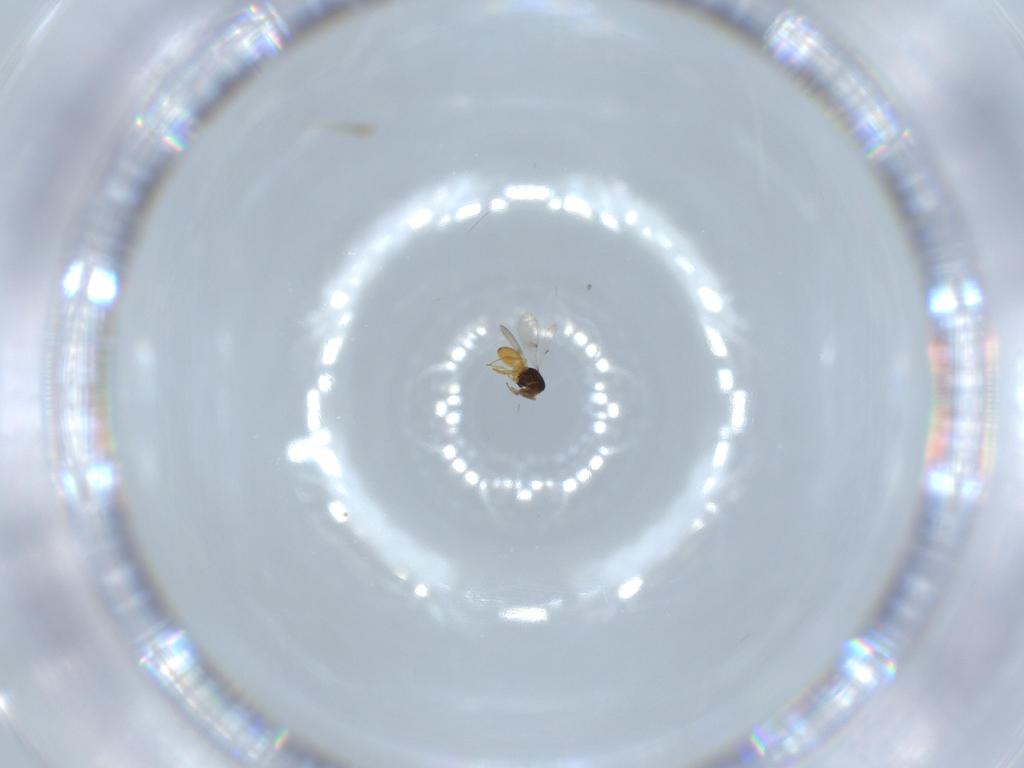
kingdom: Animalia
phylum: Arthropoda
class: Insecta
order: Hymenoptera
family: Scelionidae
